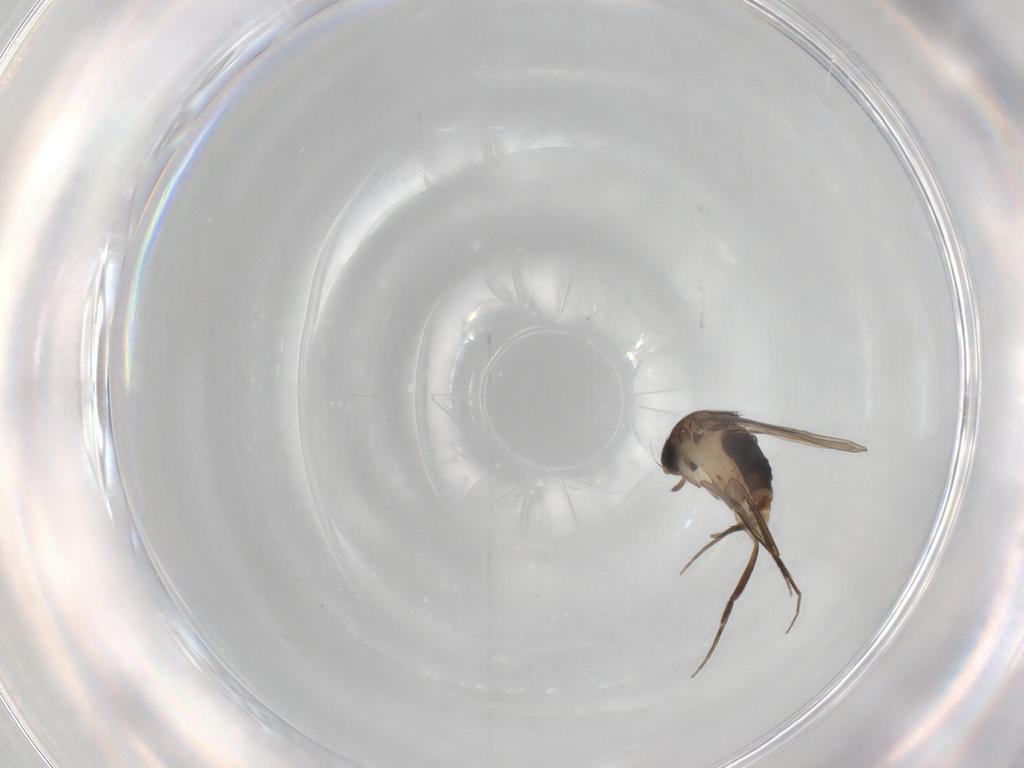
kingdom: Animalia
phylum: Arthropoda
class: Insecta
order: Diptera
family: Phoridae
